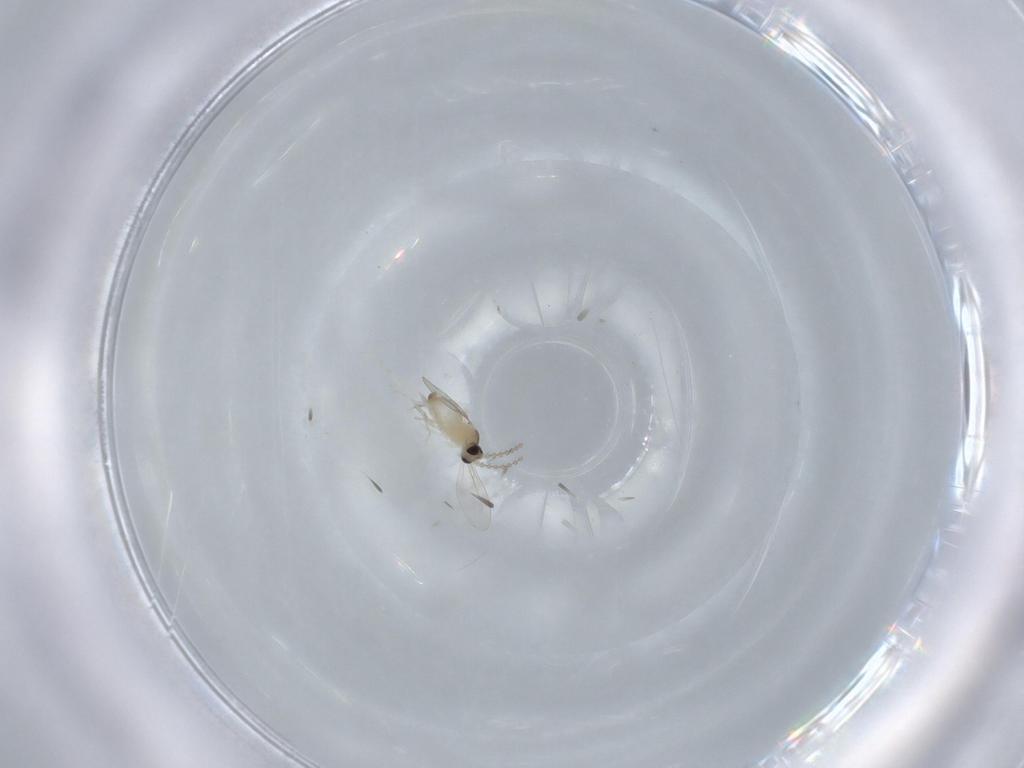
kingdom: Animalia
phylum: Arthropoda
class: Insecta
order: Diptera
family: Cecidomyiidae
